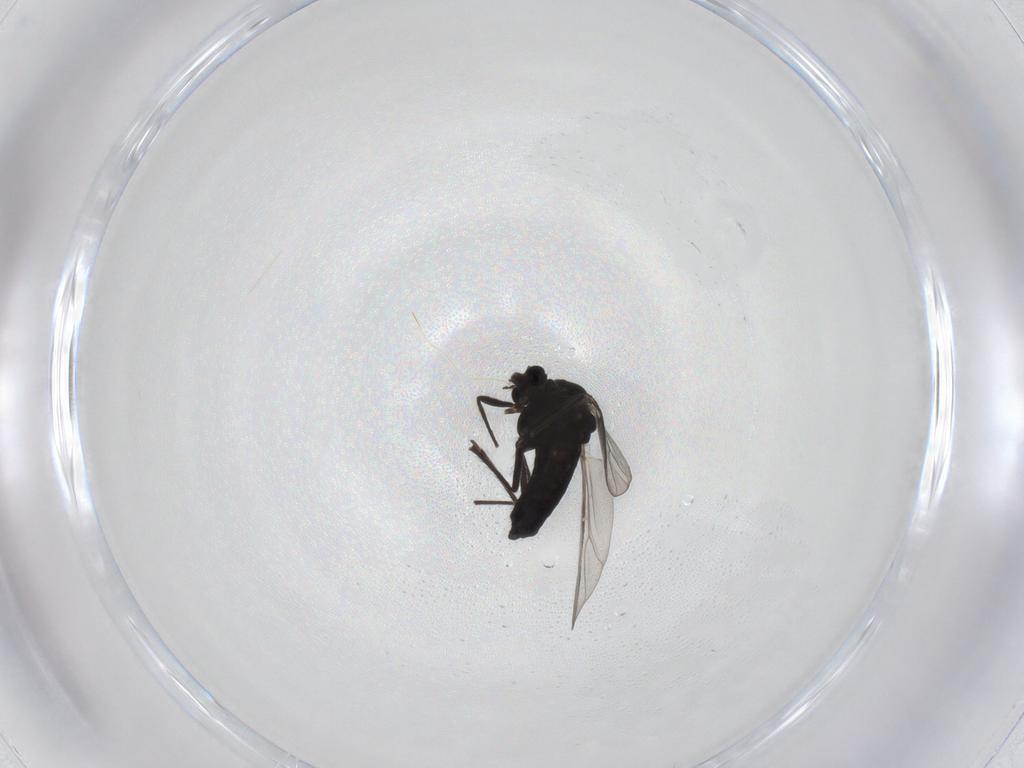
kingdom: Animalia
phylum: Arthropoda
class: Insecta
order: Diptera
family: Chironomidae
